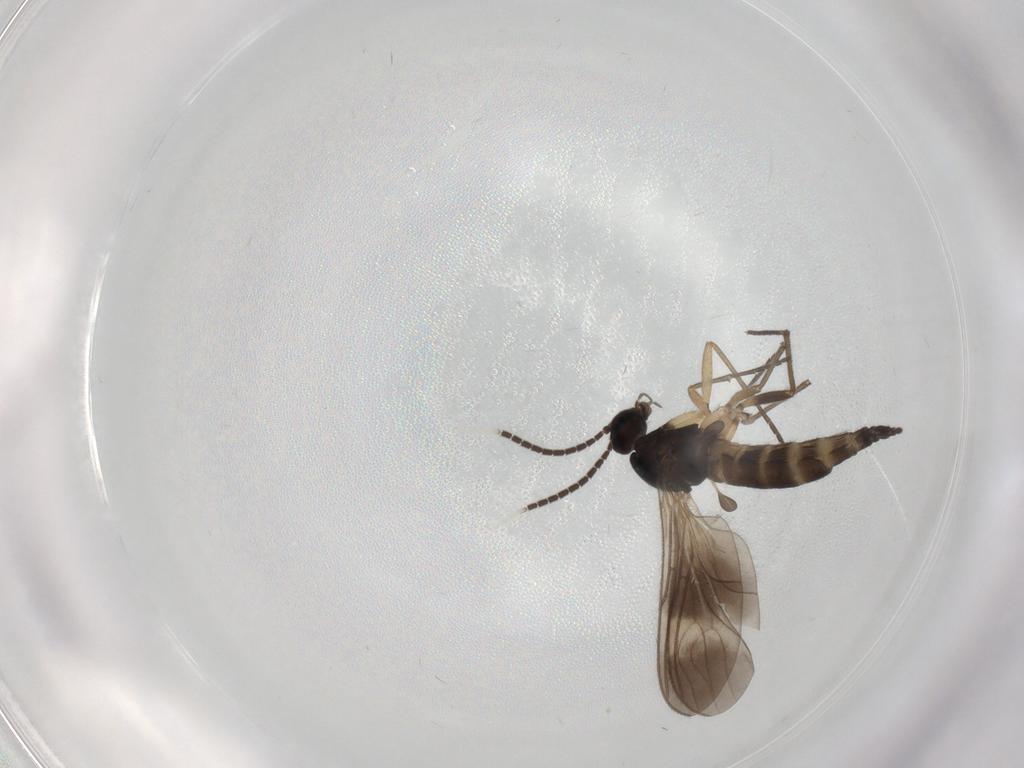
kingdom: Animalia
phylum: Arthropoda
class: Insecta
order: Diptera
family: Sciaridae
